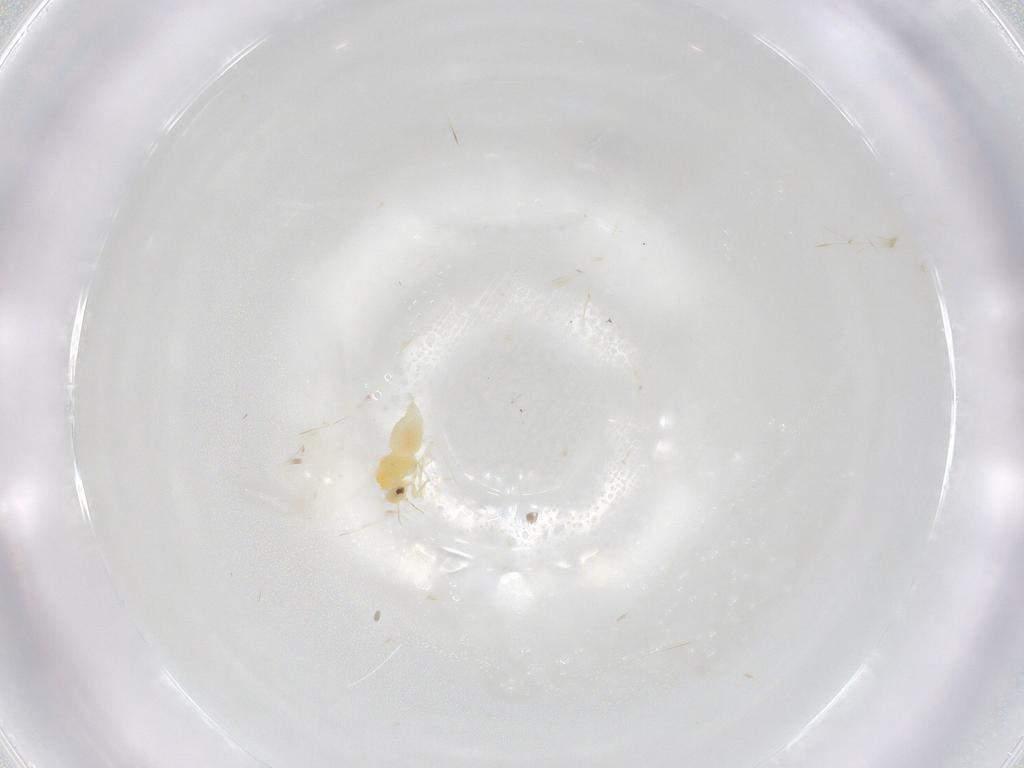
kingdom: Animalia
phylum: Arthropoda
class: Insecta
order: Hemiptera
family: Aleyrodidae
